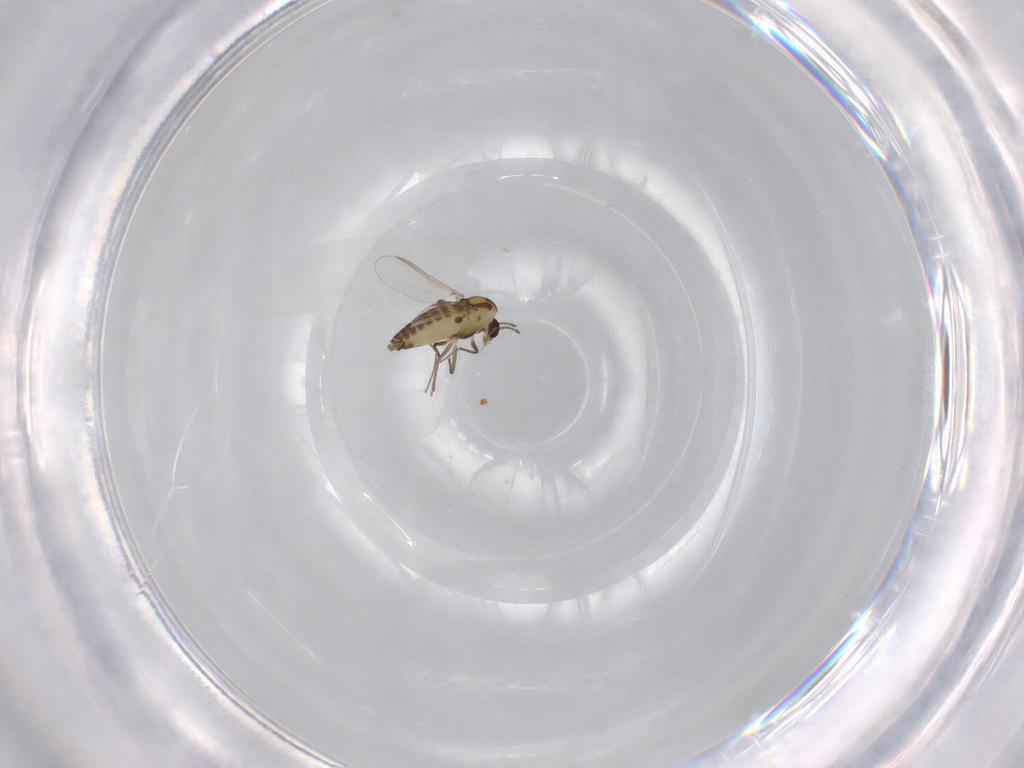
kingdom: Animalia
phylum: Arthropoda
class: Insecta
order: Diptera
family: Chironomidae
